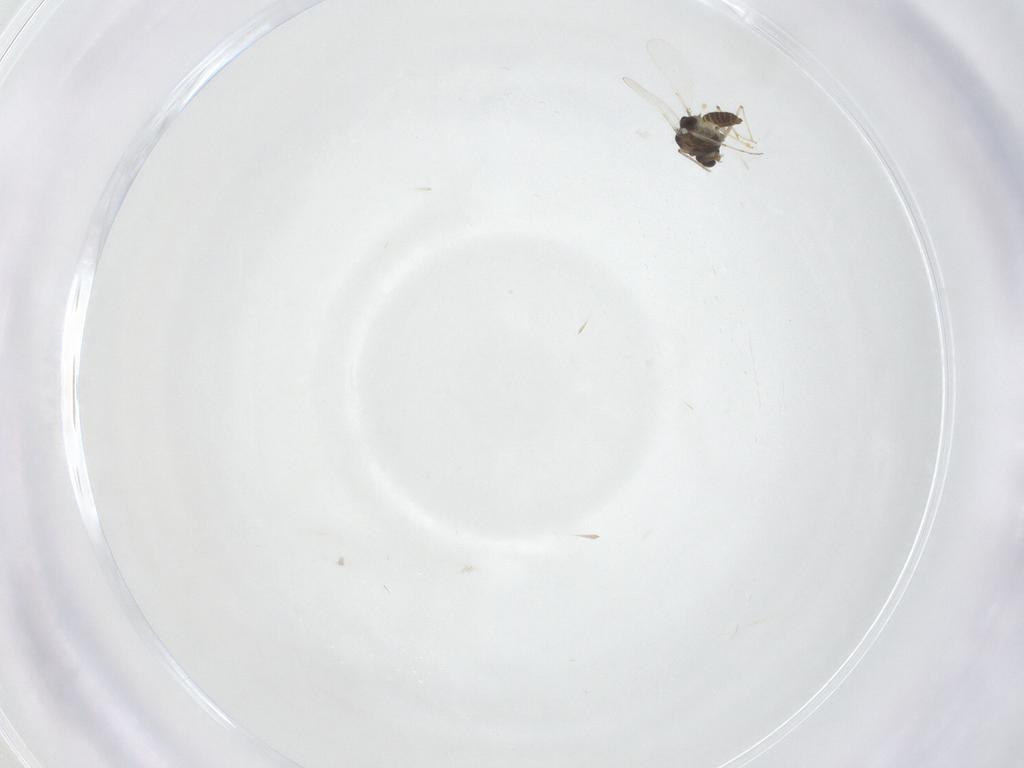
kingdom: Animalia
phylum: Arthropoda
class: Insecta
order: Diptera
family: Chironomidae
